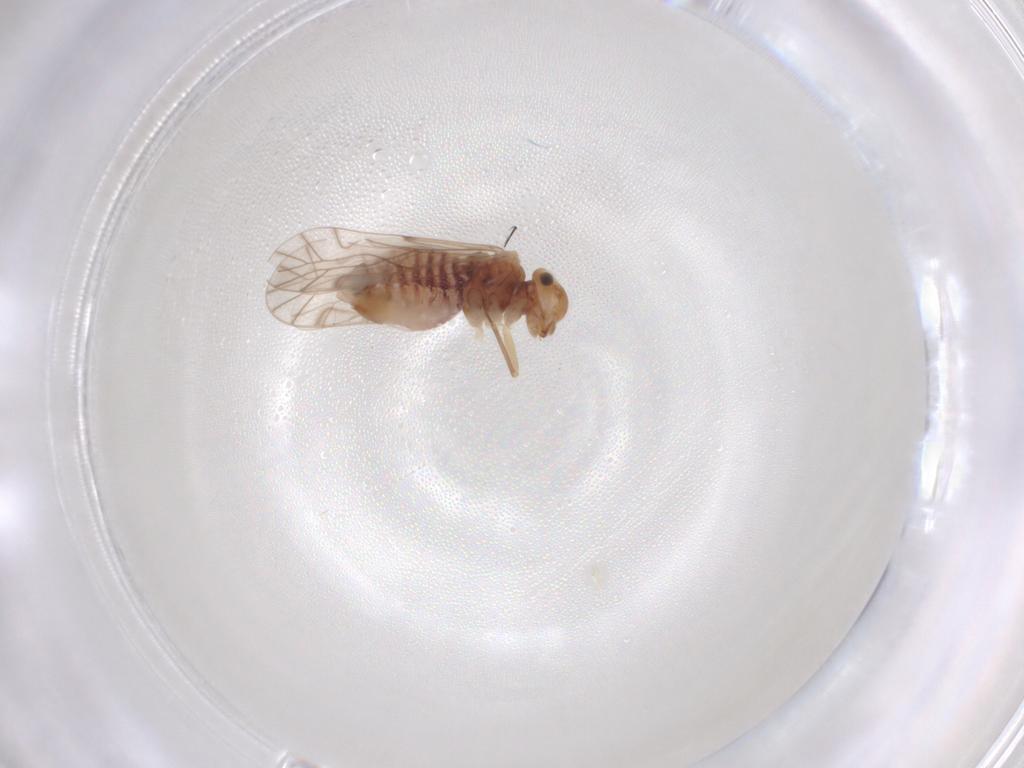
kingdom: Animalia
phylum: Arthropoda
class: Insecta
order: Psocodea
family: Lachesillidae
